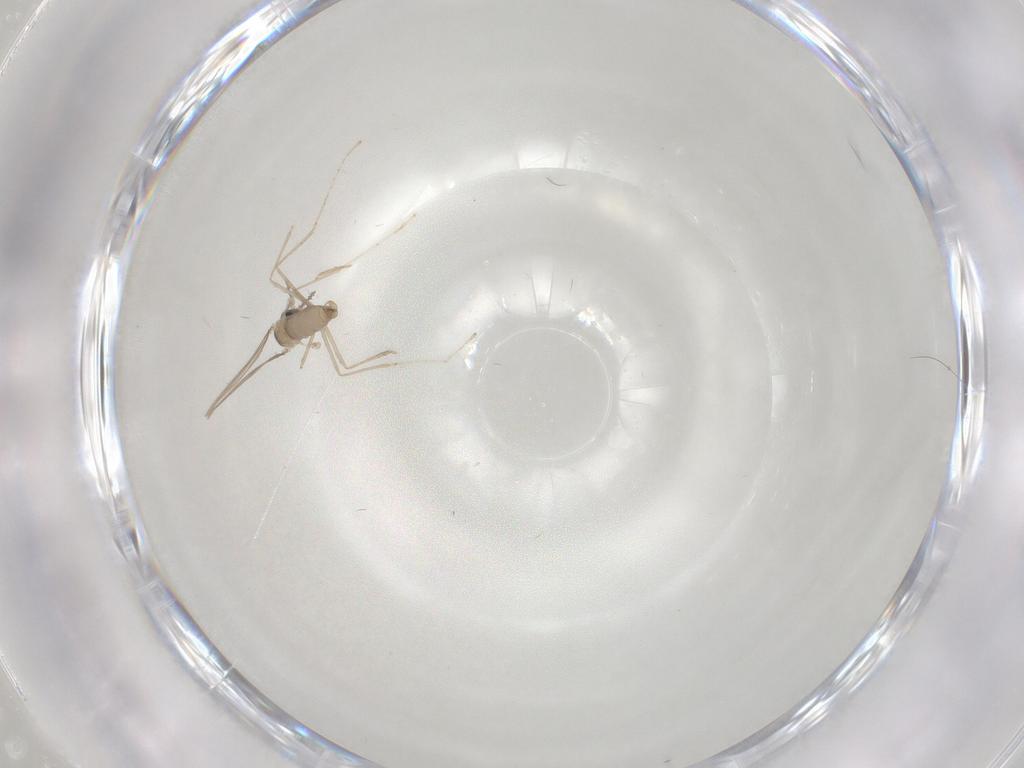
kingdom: Animalia
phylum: Arthropoda
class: Insecta
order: Diptera
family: Cecidomyiidae
